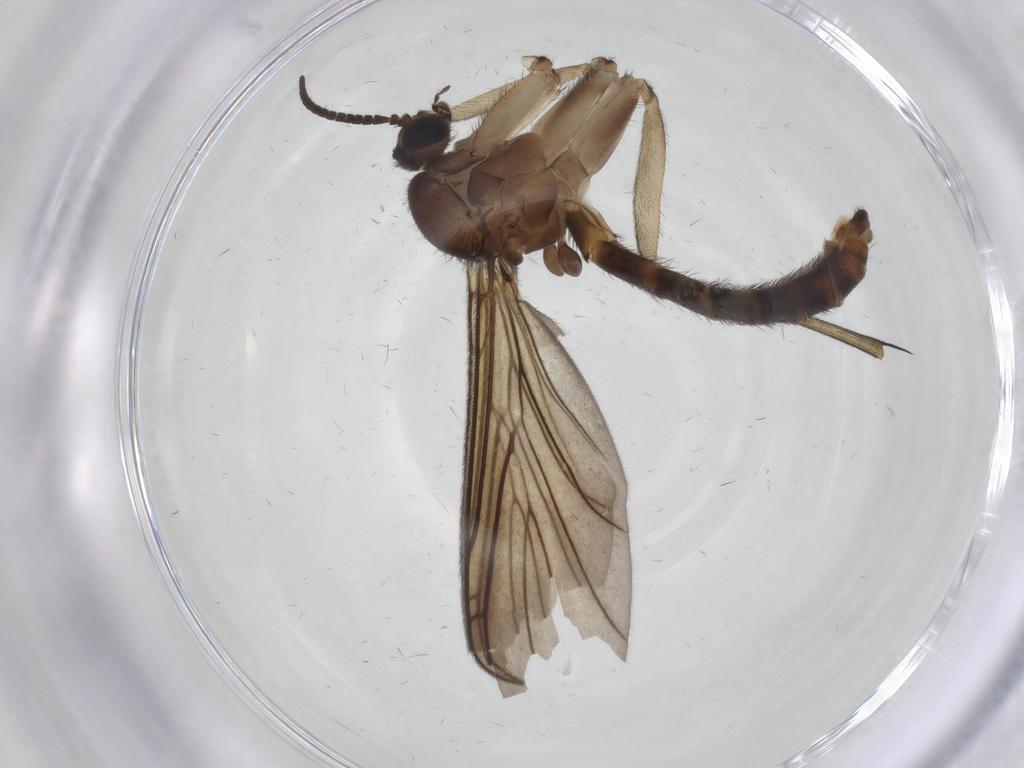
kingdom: Animalia
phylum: Arthropoda
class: Insecta
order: Diptera
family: Keroplatidae
